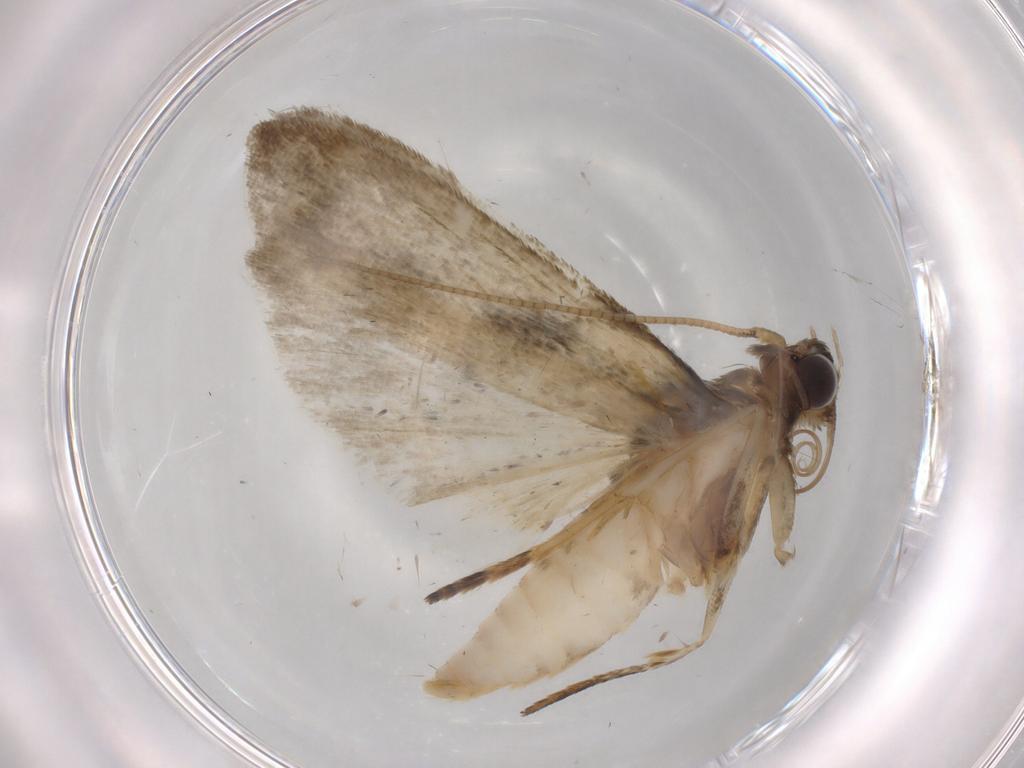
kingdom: Animalia
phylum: Arthropoda
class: Insecta
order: Lepidoptera
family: Noctuidae
